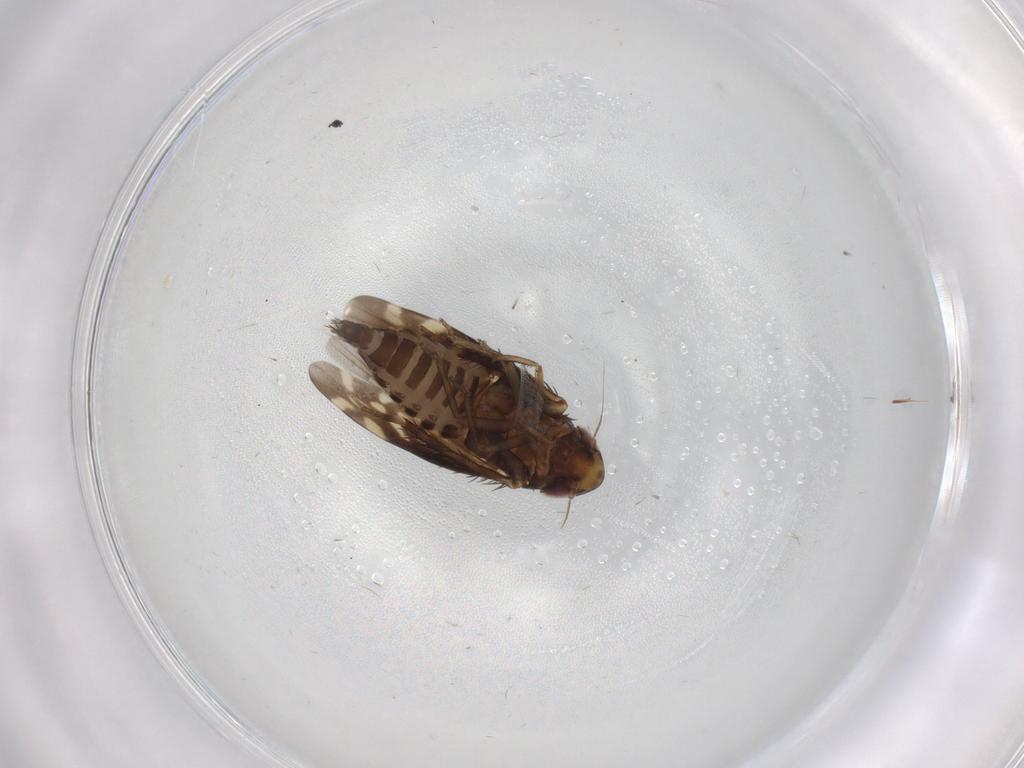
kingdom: Animalia
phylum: Arthropoda
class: Insecta
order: Hemiptera
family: Cicadellidae
